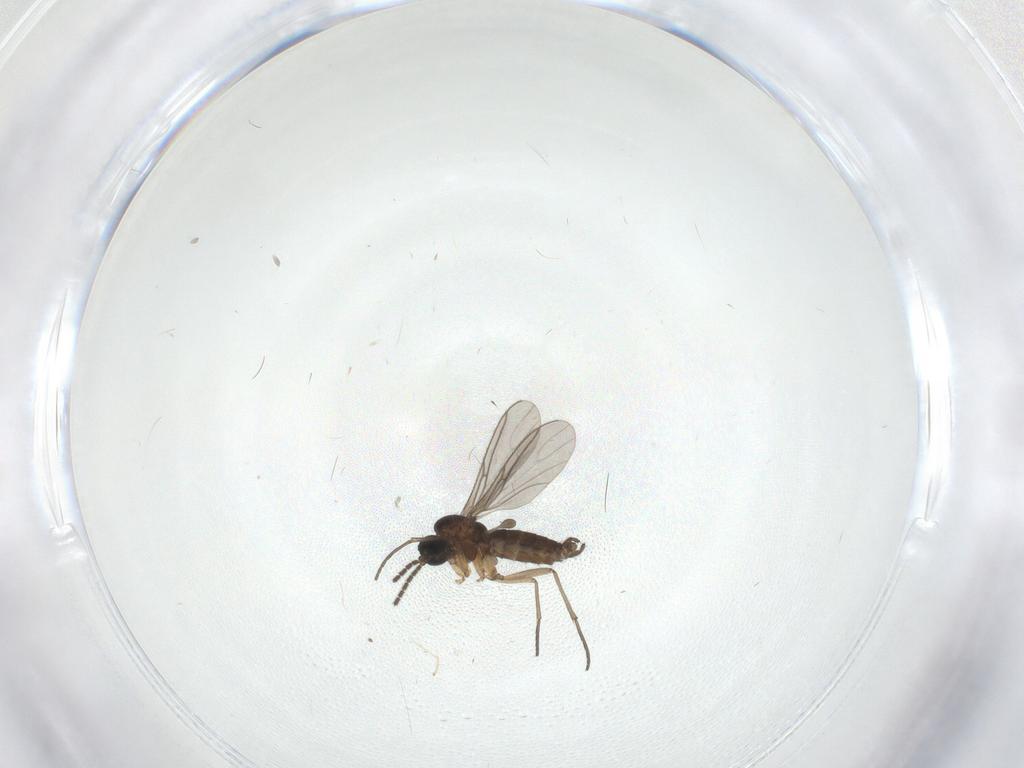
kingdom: Animalia
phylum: Arthropoda
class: Insecta
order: Diptera
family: Sciaridae
